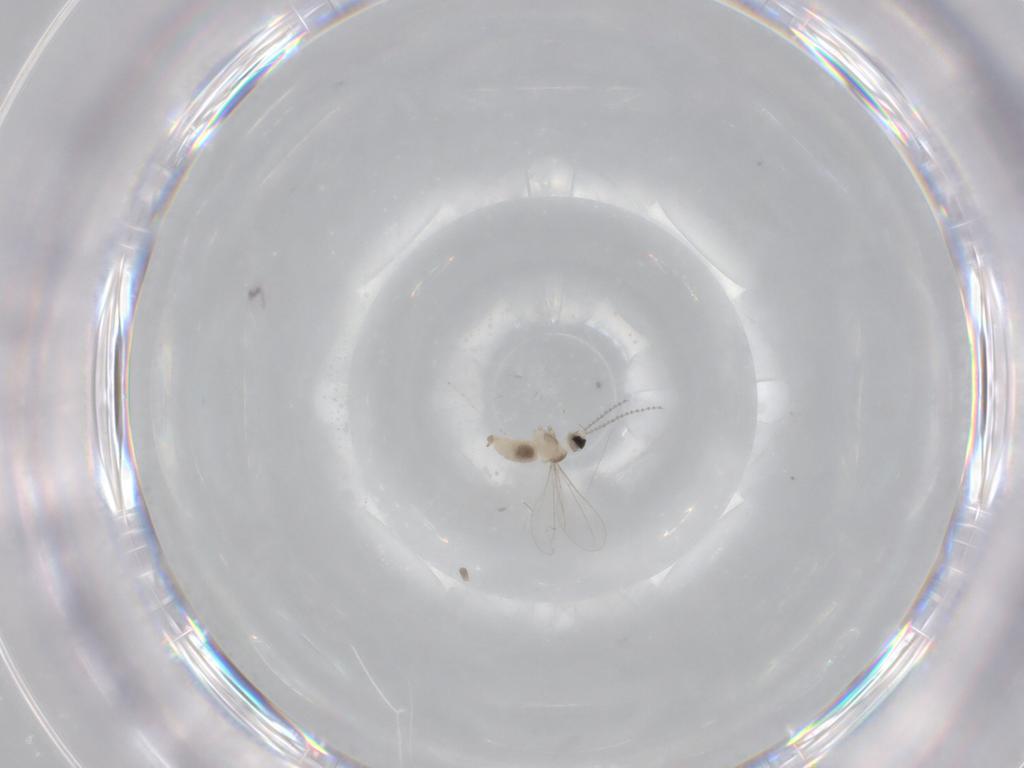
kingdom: Animalia
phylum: Arthropoda
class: Insecta
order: Diptera
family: Cecidomyiidae
